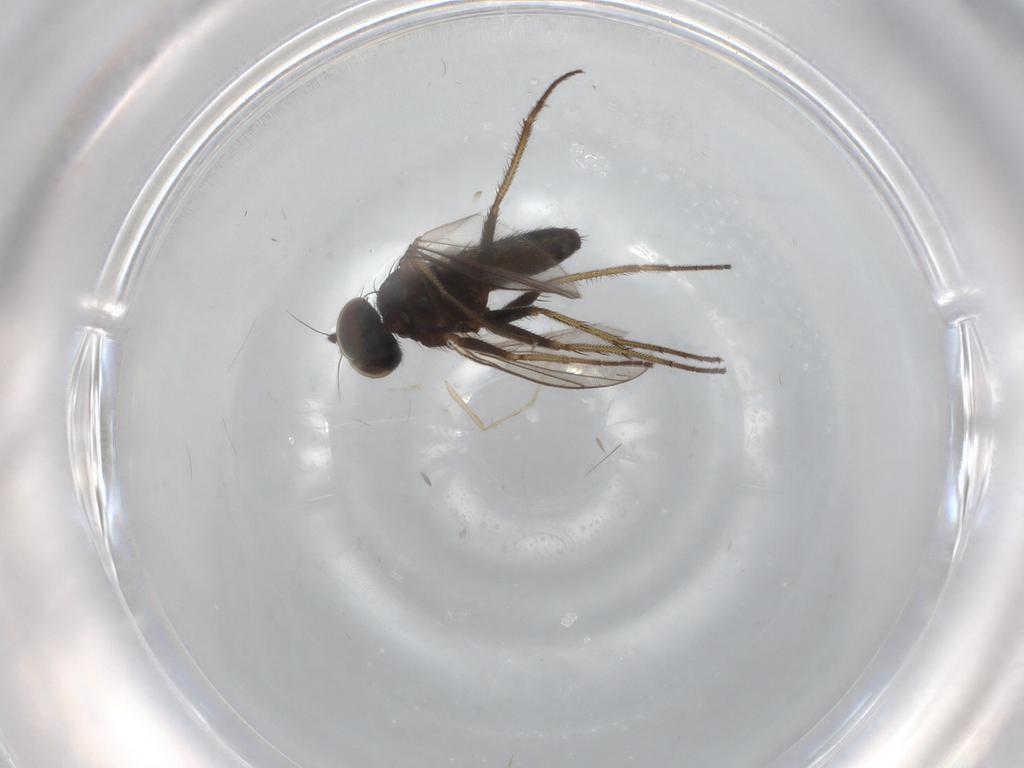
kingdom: Animalia
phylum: Arthropoda
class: Insecta
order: Diptera
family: Dolichopodidae
